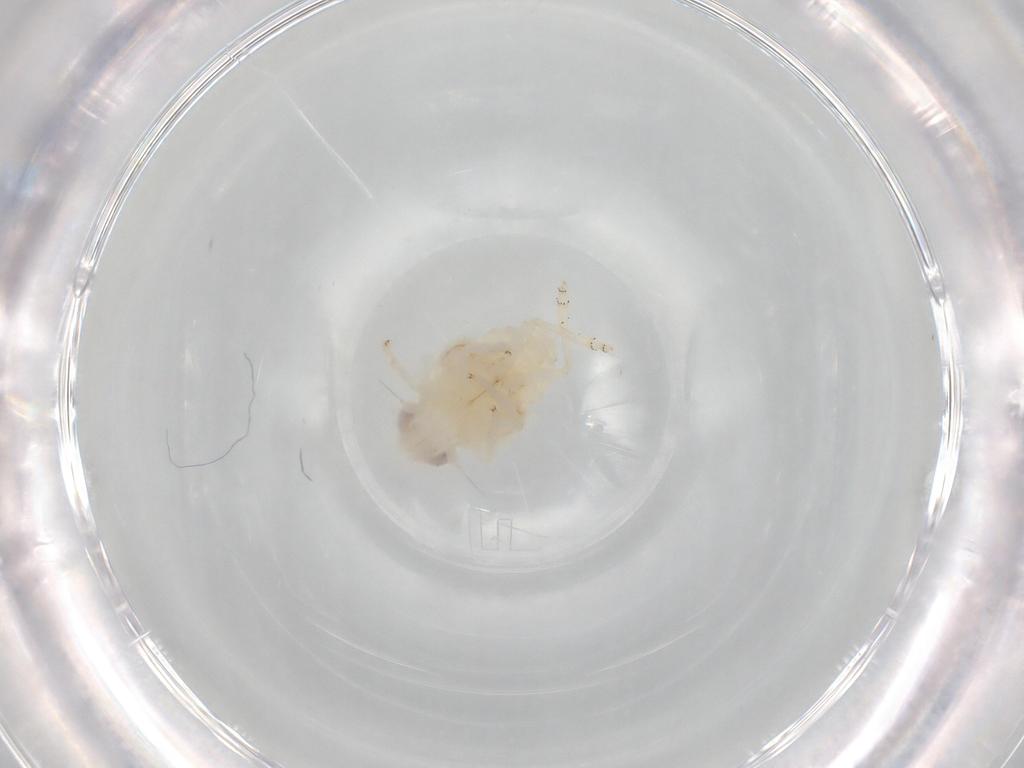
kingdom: Animalia
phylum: Arthropoda
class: Insecta
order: Hemiptera
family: Nogodinidae
